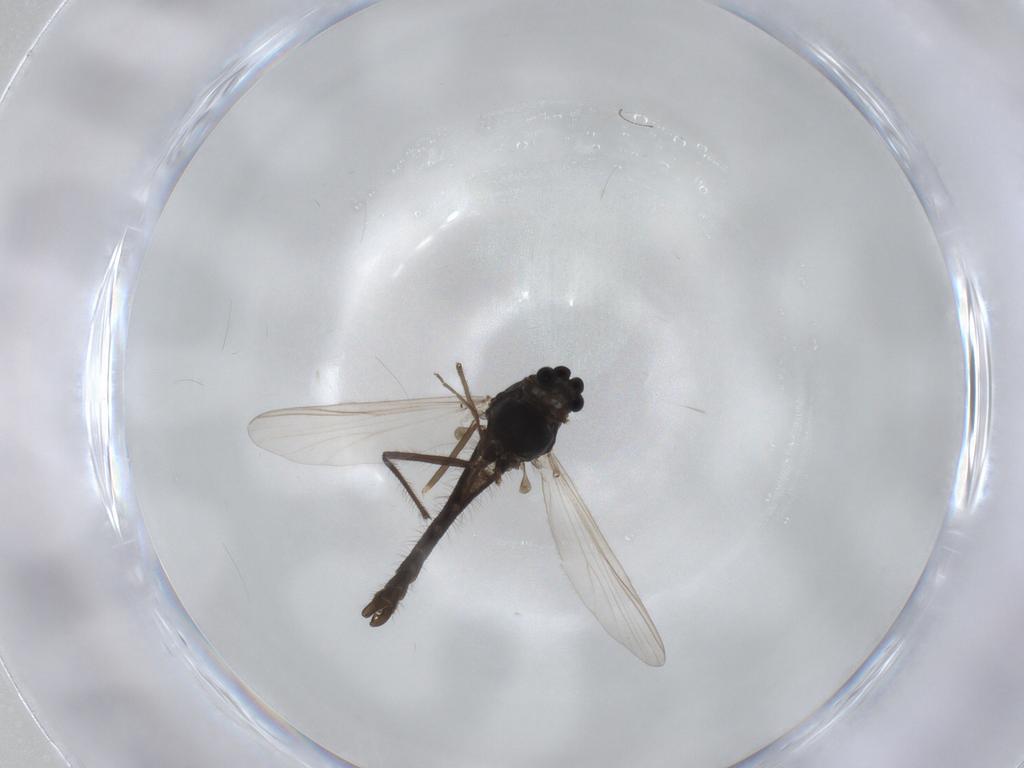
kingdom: Animalia
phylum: Arthropoda
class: Insecta
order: Diptera
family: Chironomidae
